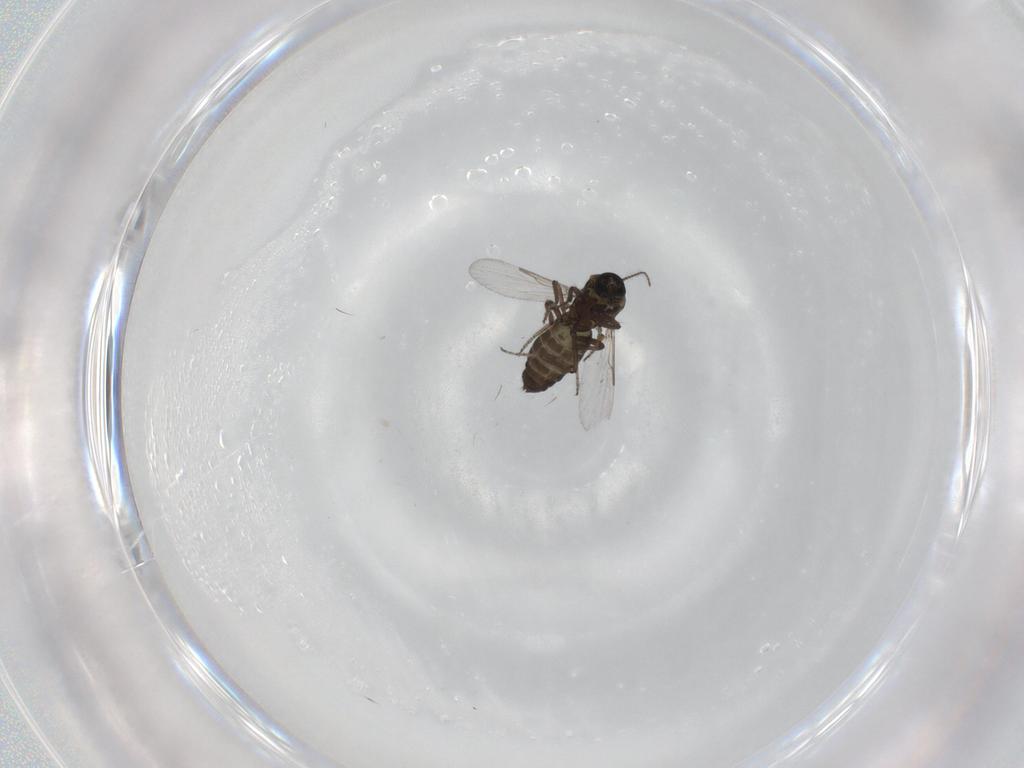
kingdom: Animalia
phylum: Arthropoda
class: Insecta
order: Diptera
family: Ceratopogonidae
